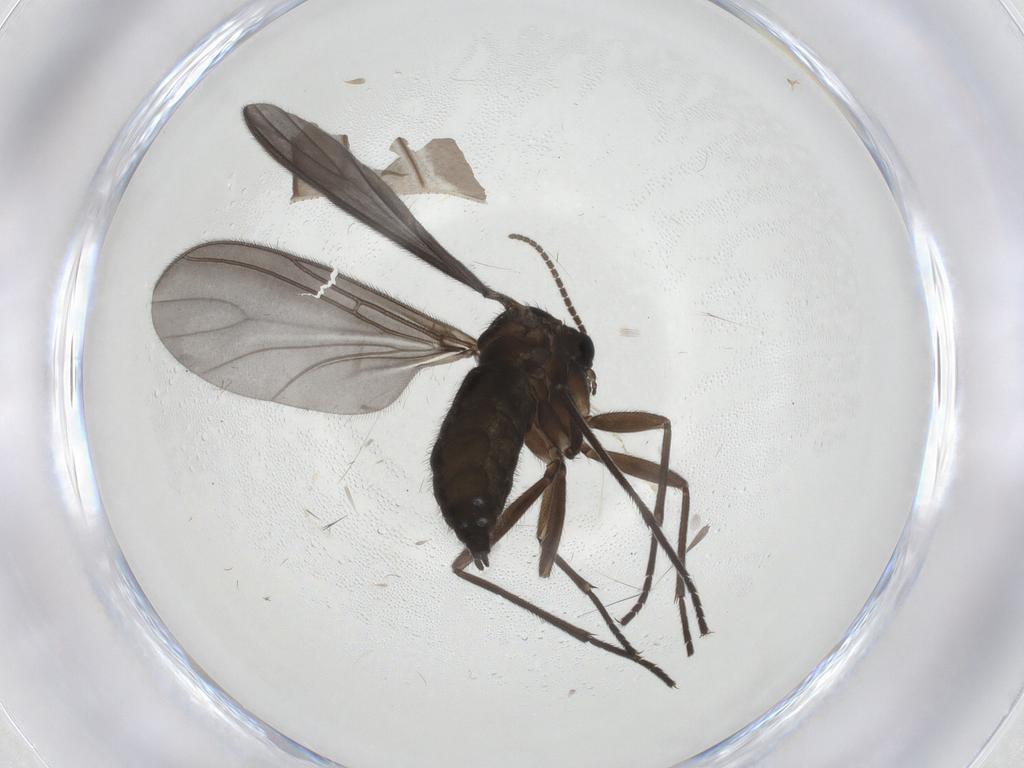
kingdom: Animalia
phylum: Arthropoda
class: Insecta
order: Diptera
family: Sciaridae
